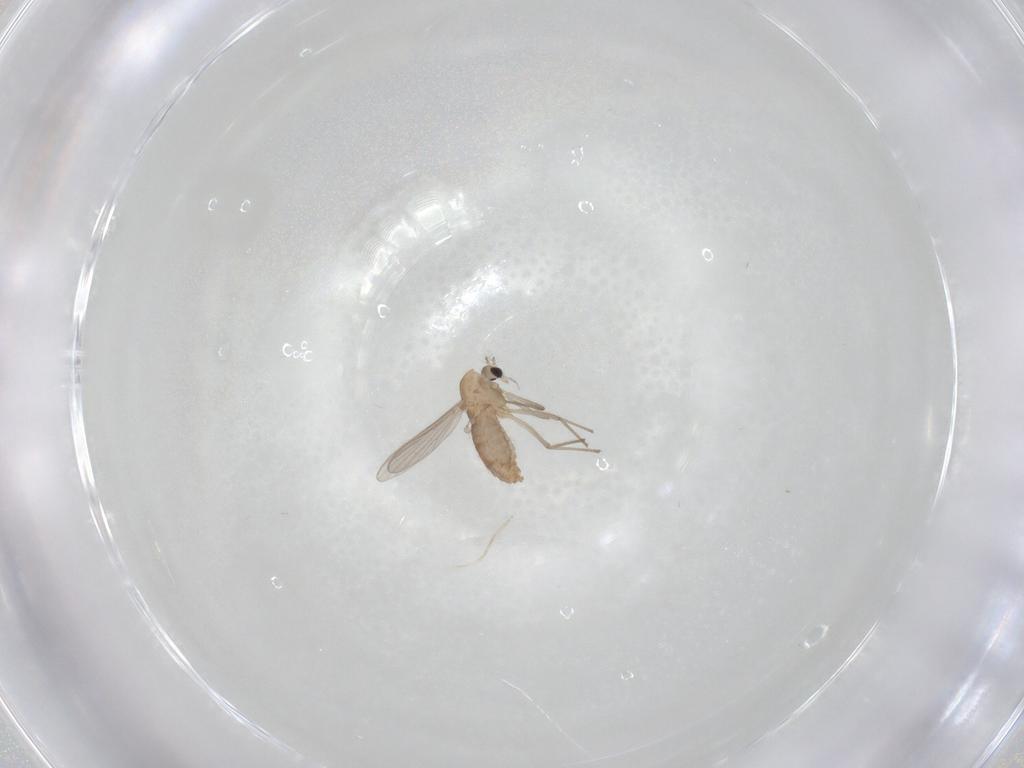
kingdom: Animalia
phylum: Arthropoda
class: Insecta
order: Diptera
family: Chironomidae
